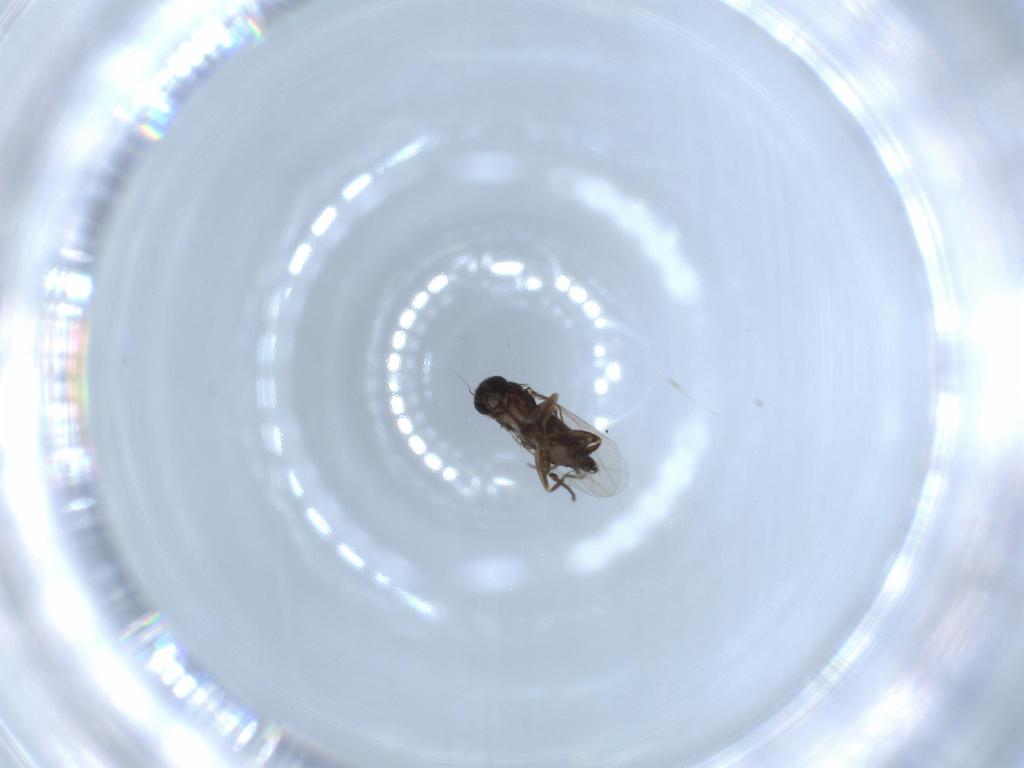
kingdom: Animalia
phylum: Arthropoda
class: Insecta
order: Diptera
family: Phoridae
